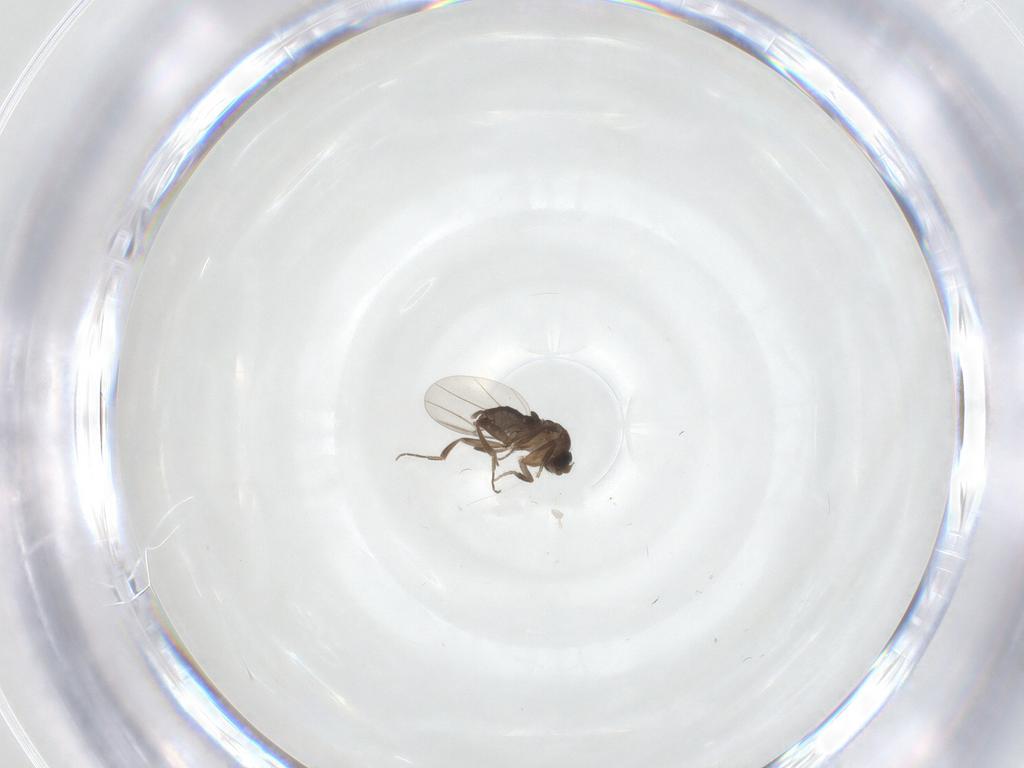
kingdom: Animalia
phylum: Arthropoda
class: Insecta
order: Diptera
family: Phoridae
